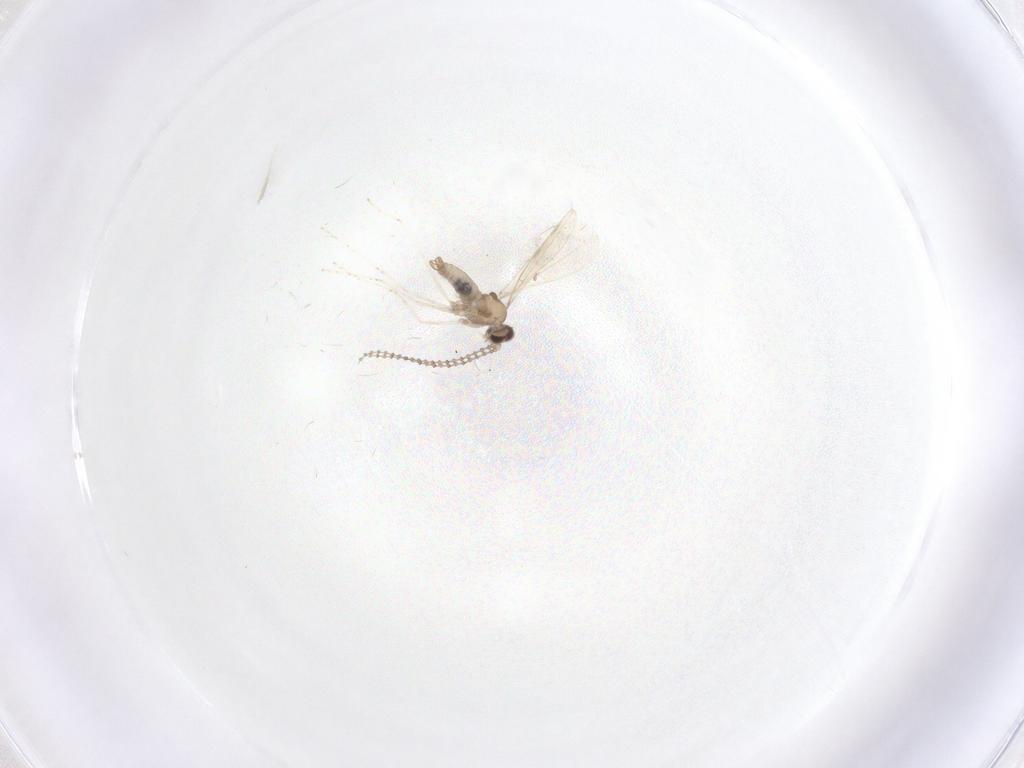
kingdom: Animalia
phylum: Arthropoda
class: Insecta
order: Diptera
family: Cecidomyiidae
